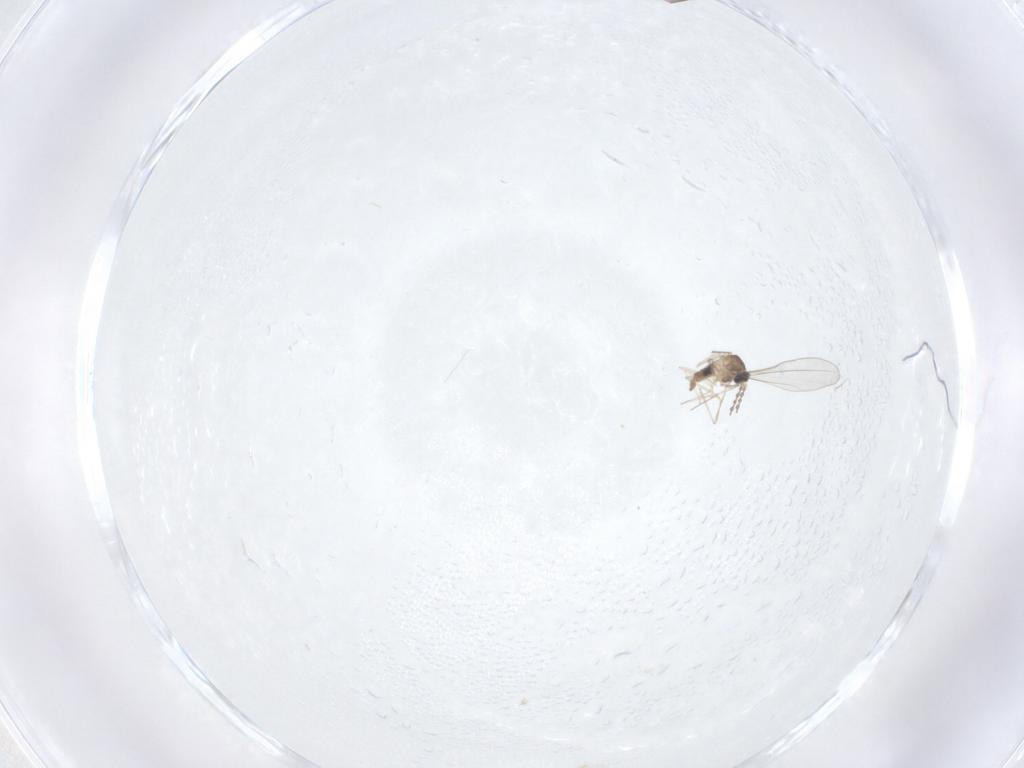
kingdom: Animalia
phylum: Arthropoda
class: Insecta
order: Diptera
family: Cecidomyiidae
